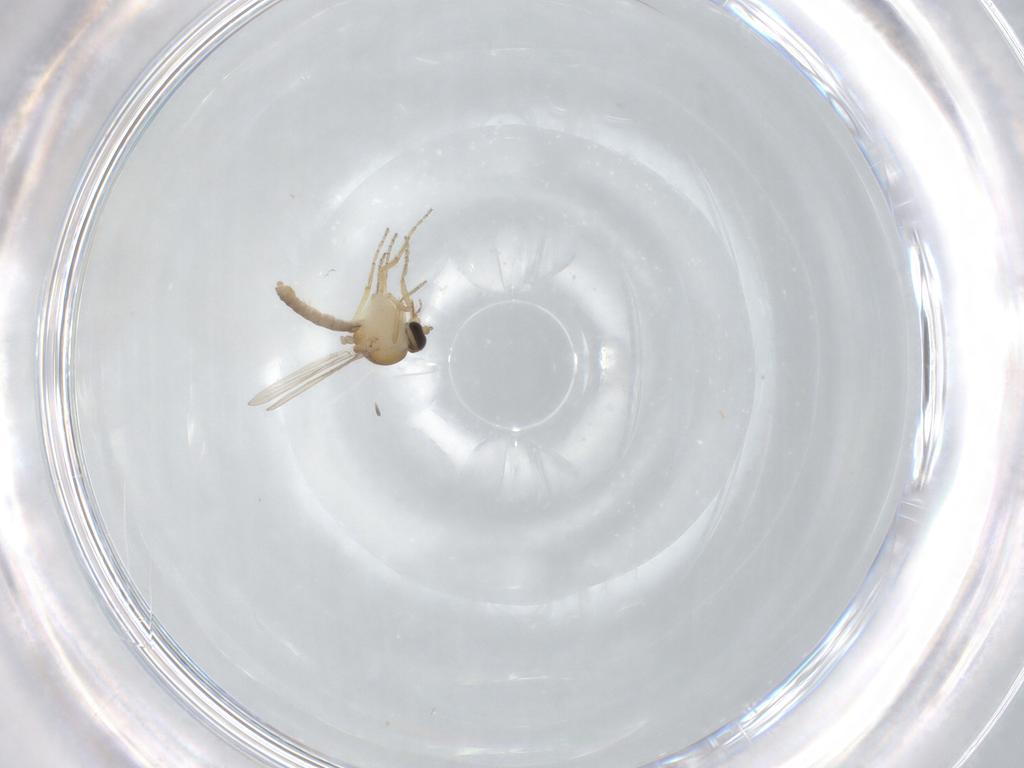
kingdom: Animalia
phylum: Arthropoda
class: Insecta
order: Diptera
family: Ceratopogonidae
